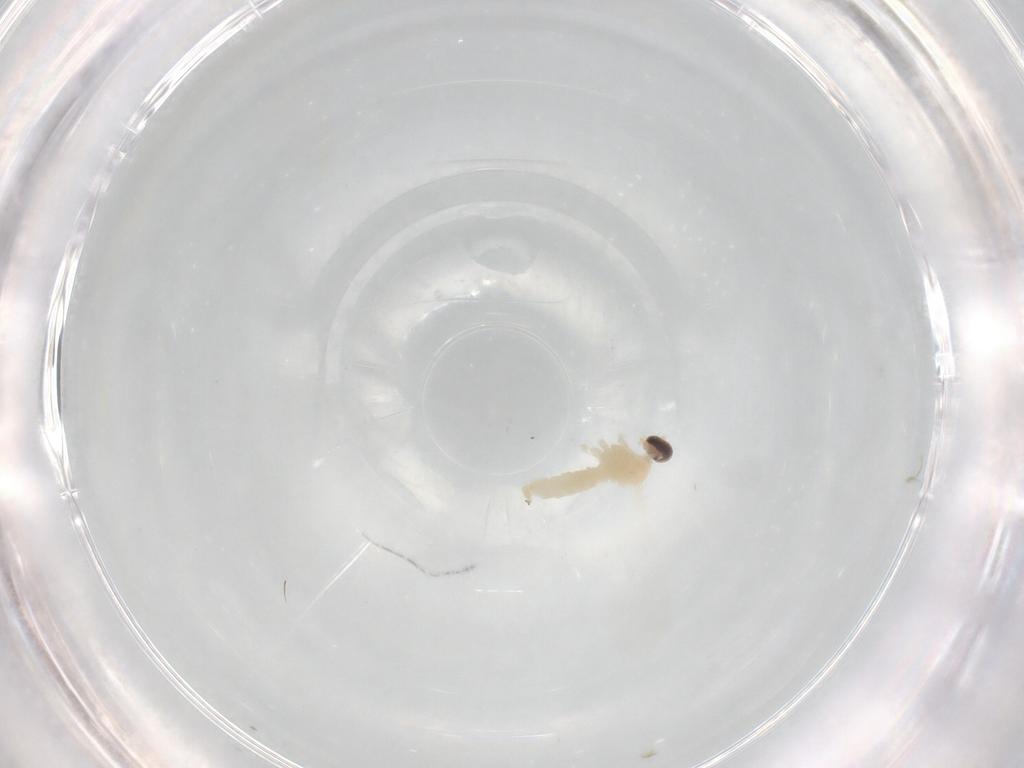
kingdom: Animalia
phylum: Arthropoda
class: Insecta
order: Diptera
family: Cecidomyiidae
